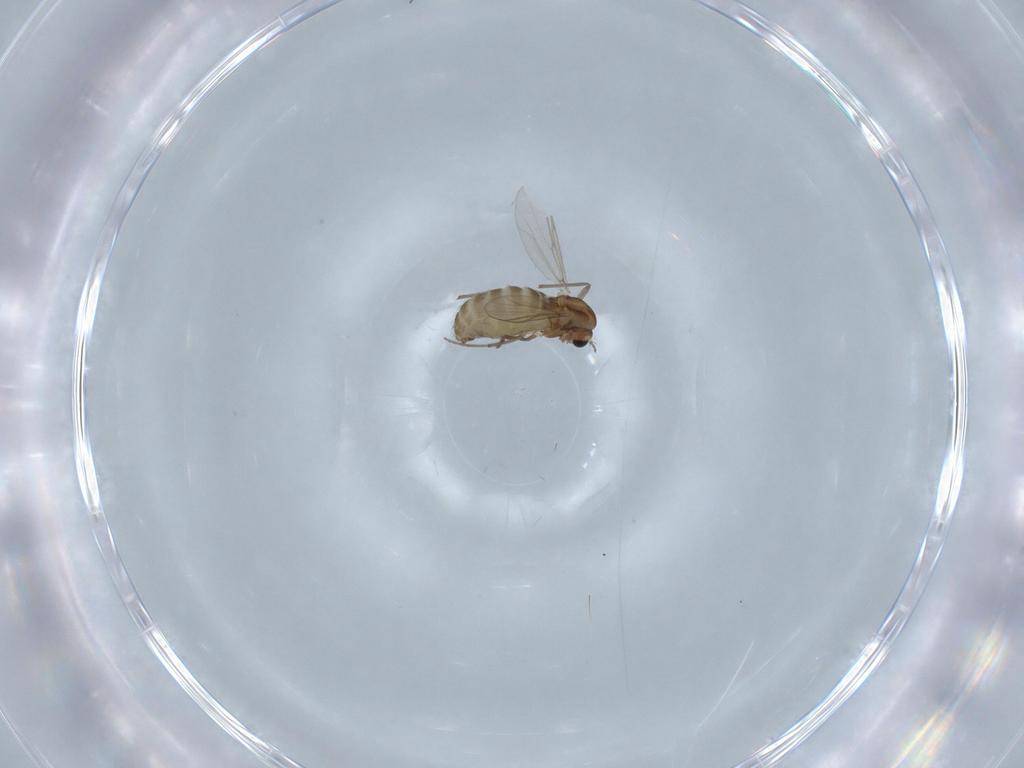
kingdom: Animalia
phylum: Arthropoda
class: Insecta
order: Diptera
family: Chironomidae
